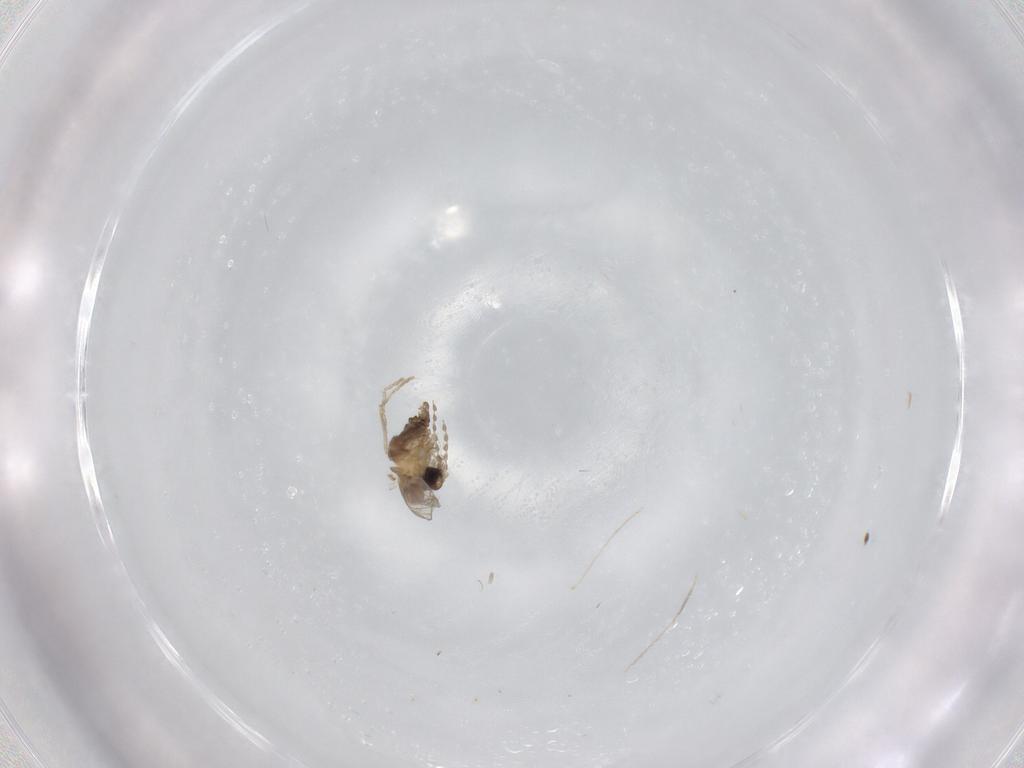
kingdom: Animalia
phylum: Arthropoda
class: Insecta
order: Diptera
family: Cecidomyiidae
